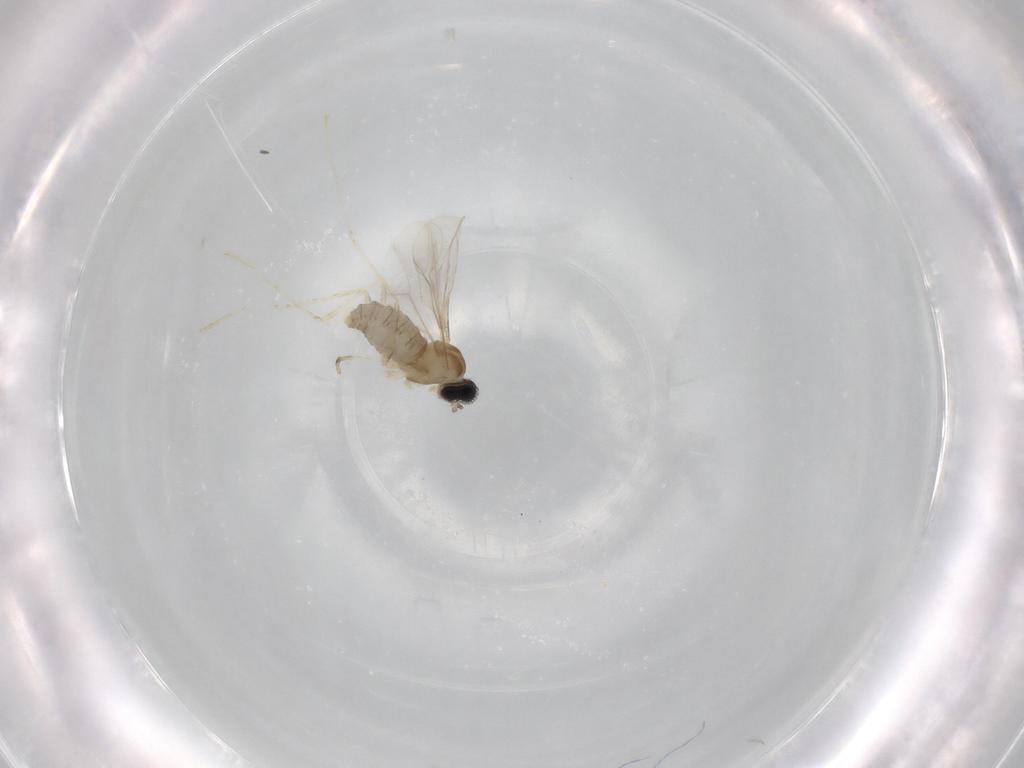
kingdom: Animalia
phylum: Arthropoda
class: Insecta
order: Diptera
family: Cecidomyiidae
